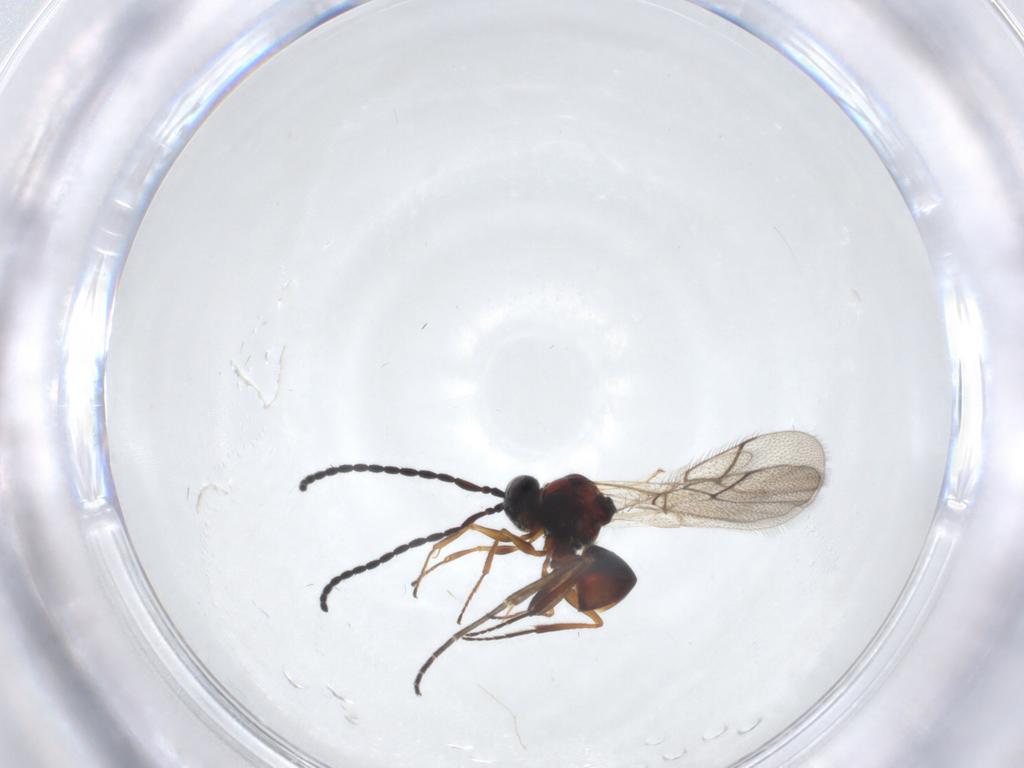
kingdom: Animalia
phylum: Arthropoda
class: Insecta
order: Hymenoptera
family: Figitidae
